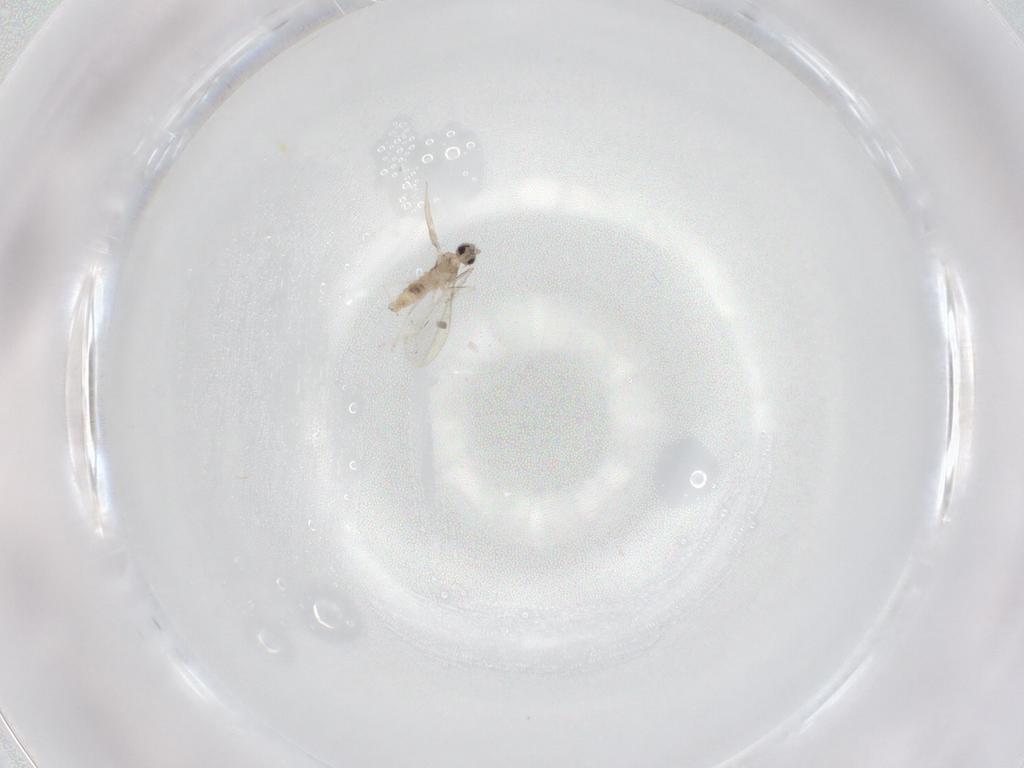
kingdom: Animalia
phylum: Arthropoda
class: Insecta
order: Diptera
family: Cecidomyiidae
